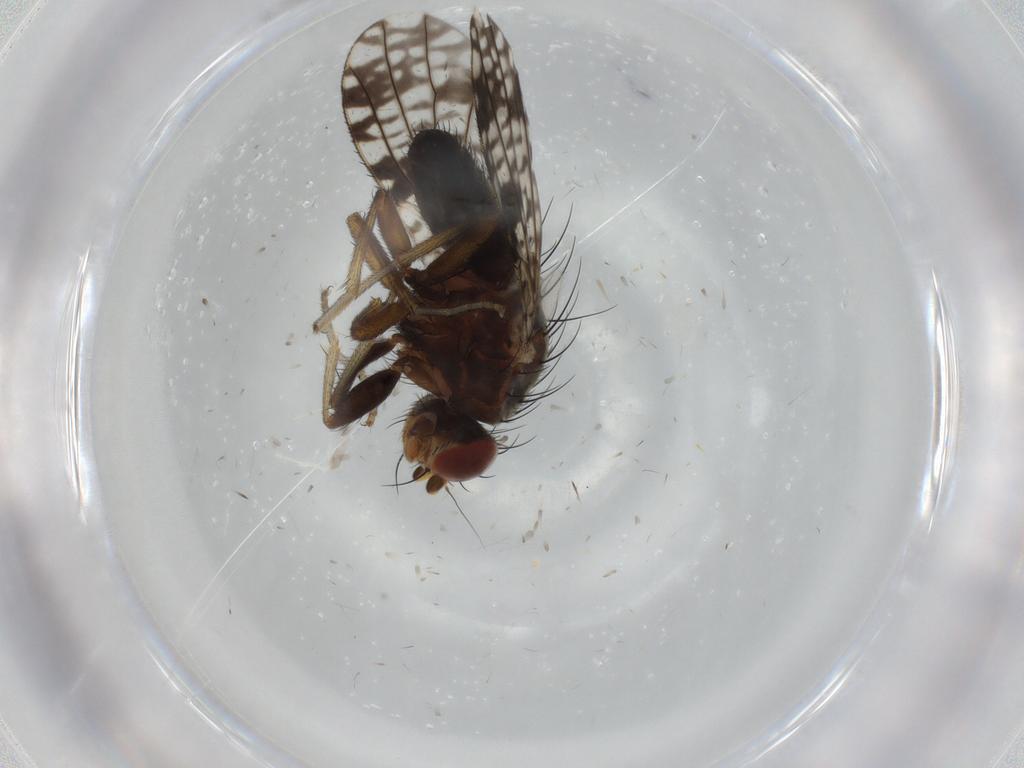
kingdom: Animalia
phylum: Arthropoda
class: Insecta
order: Diptera
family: Tephritidae
